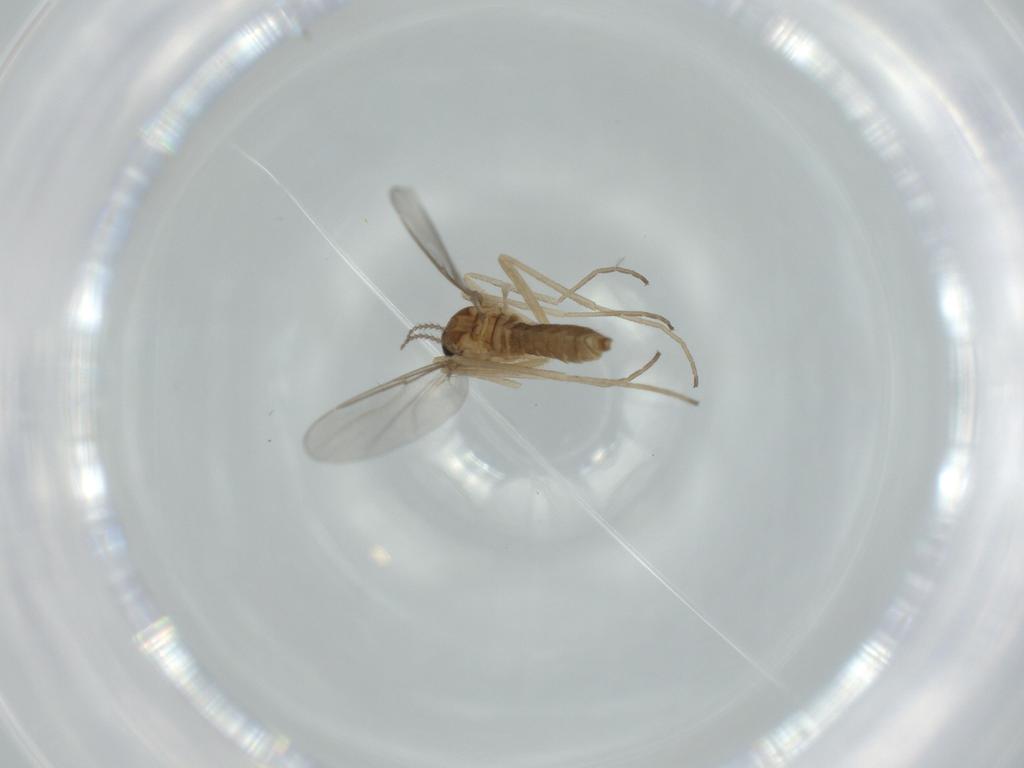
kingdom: Animalia
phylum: Arthropoda
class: Insecta
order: Diptera
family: Cecidomyiidae
